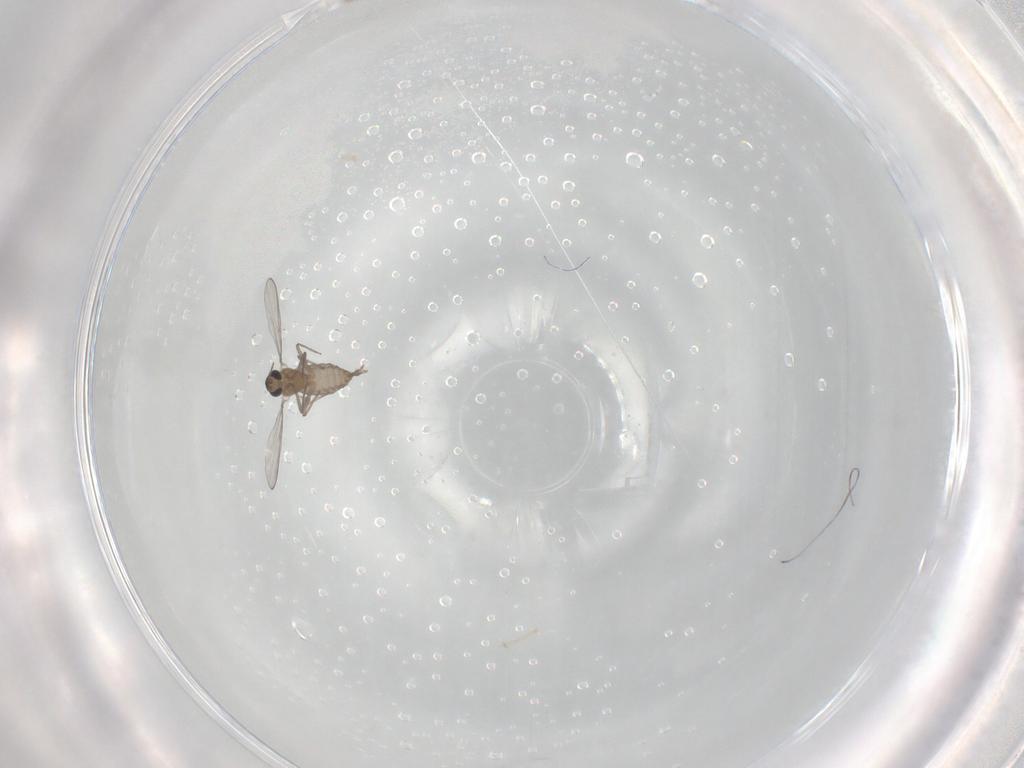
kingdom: Animalia
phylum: Arthropoda
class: Insecta
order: Diptera
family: Chironomidae
